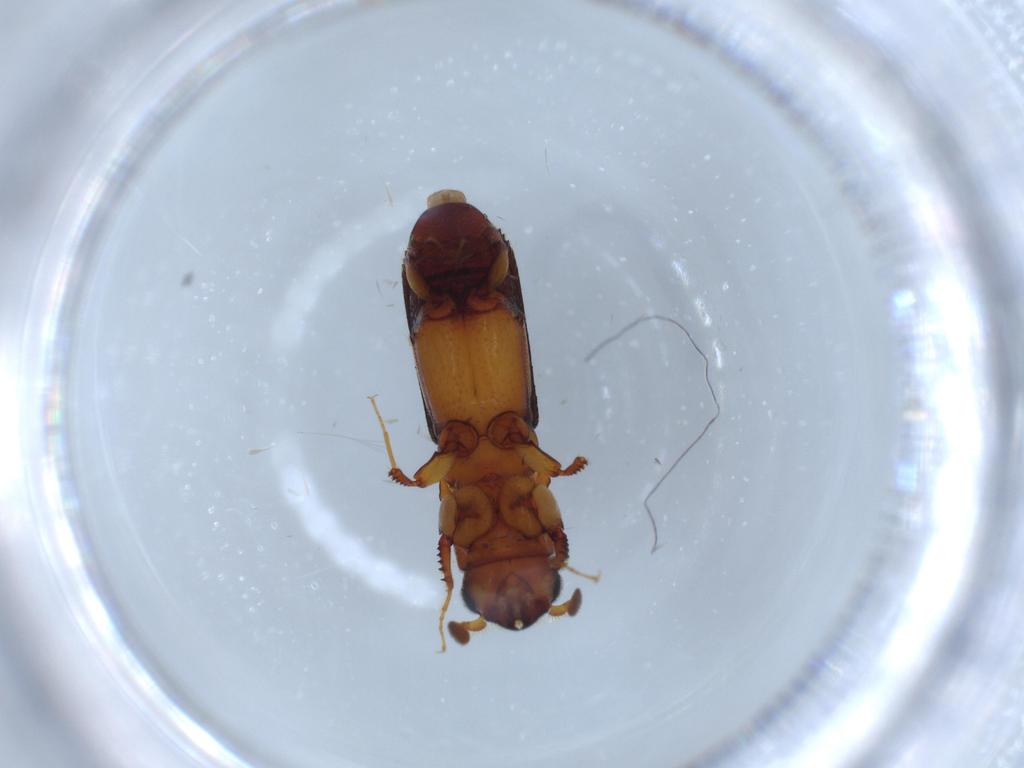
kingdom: Animalia
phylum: Arthropoda
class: Insecta
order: Coleoptera
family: Curculionidae
